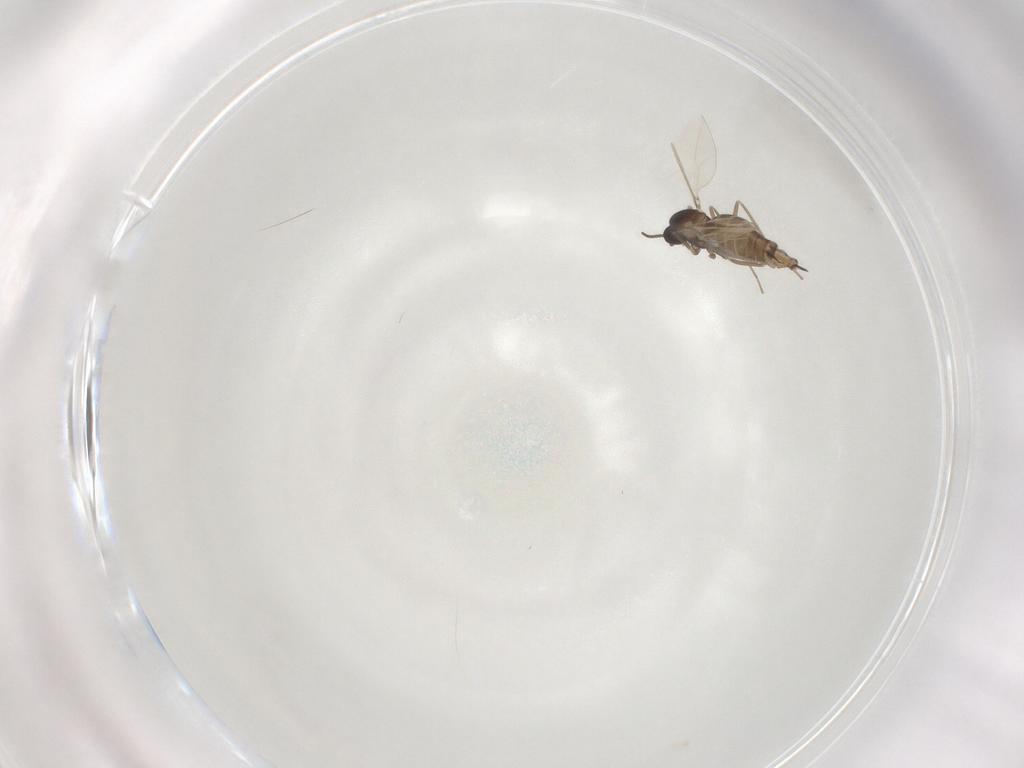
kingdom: Animalia
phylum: Arthropoda
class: Insecta
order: Diptera
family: Cecidomyiidae
